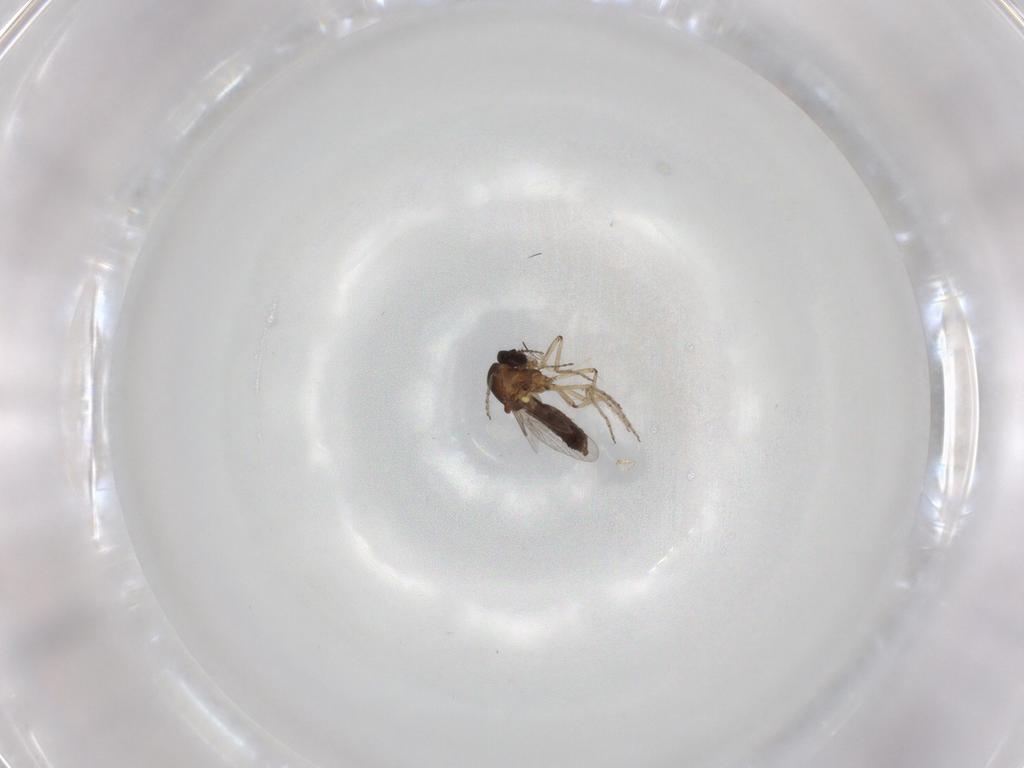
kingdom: Animalia
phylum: Arthropoda
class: Insecta
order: Diptera
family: Ceratopogonidae
